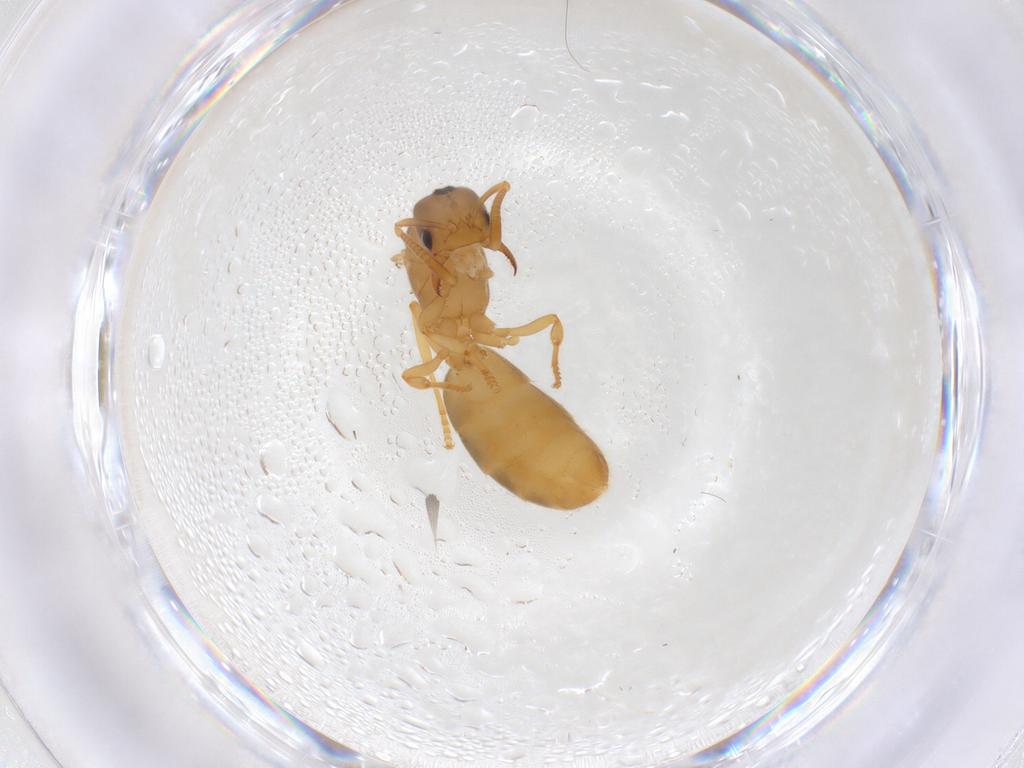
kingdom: Animalia
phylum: Arthropoda
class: Insecta
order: Hymenoptera
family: Formicidae
